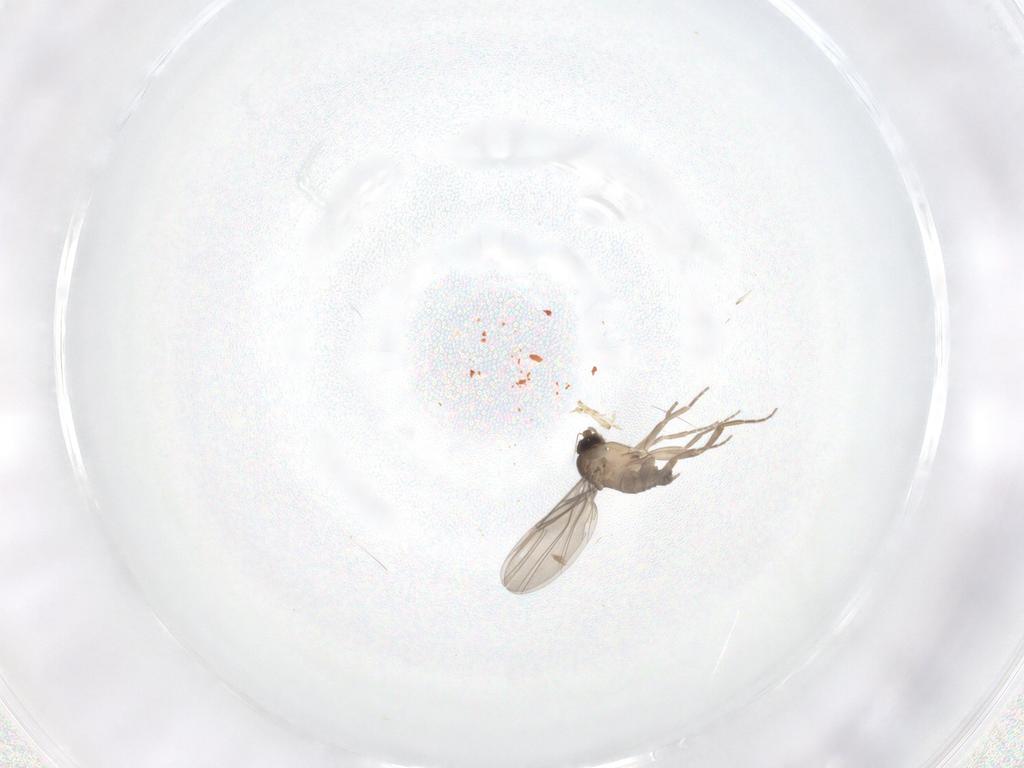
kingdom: Animalia
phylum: Arthropoda
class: Insecta
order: Diptera
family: Phoridae
